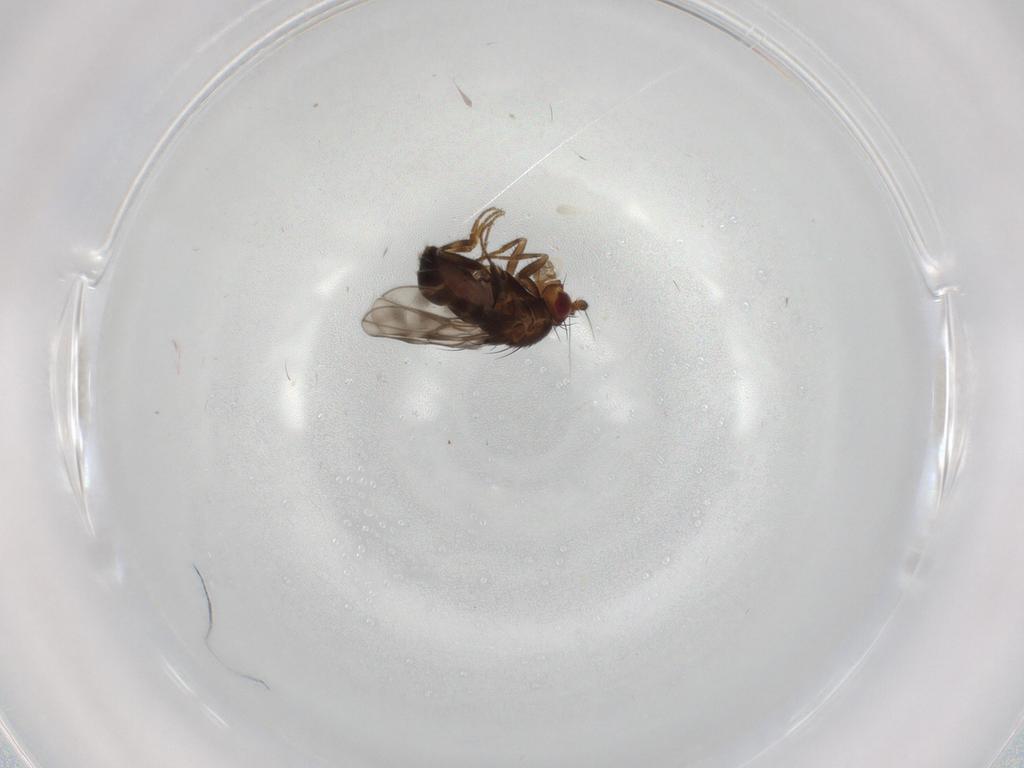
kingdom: Animalia
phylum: Arthropoda
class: Insecta
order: Diptera
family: Sphaeroceridae
